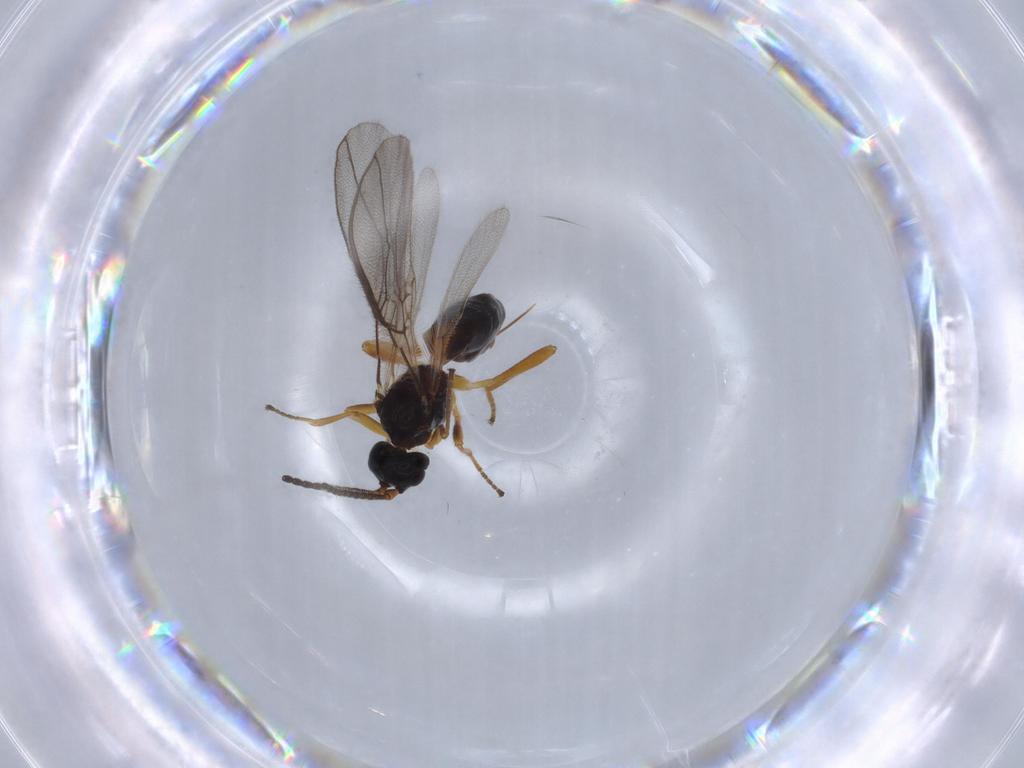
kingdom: Animalia
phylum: Arthropoda
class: Insecta
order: Hymenoptera
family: Braconidae
